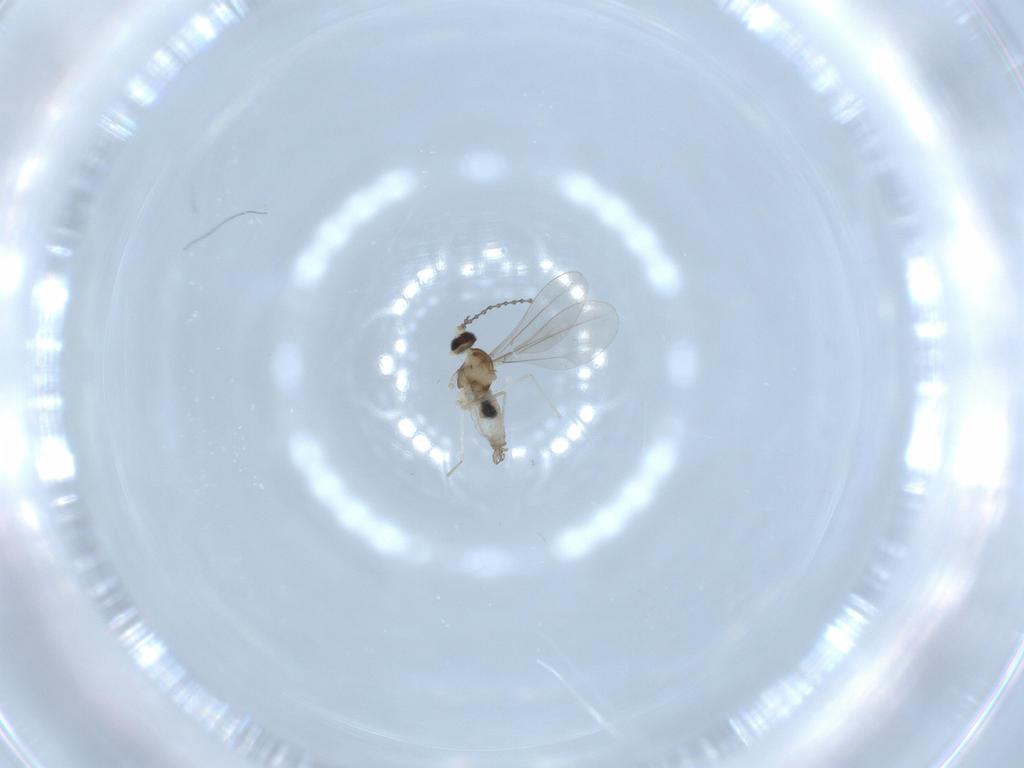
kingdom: Animalia
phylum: Arthropoda
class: Insecta
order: Diptera
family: Cecidomyiidae
